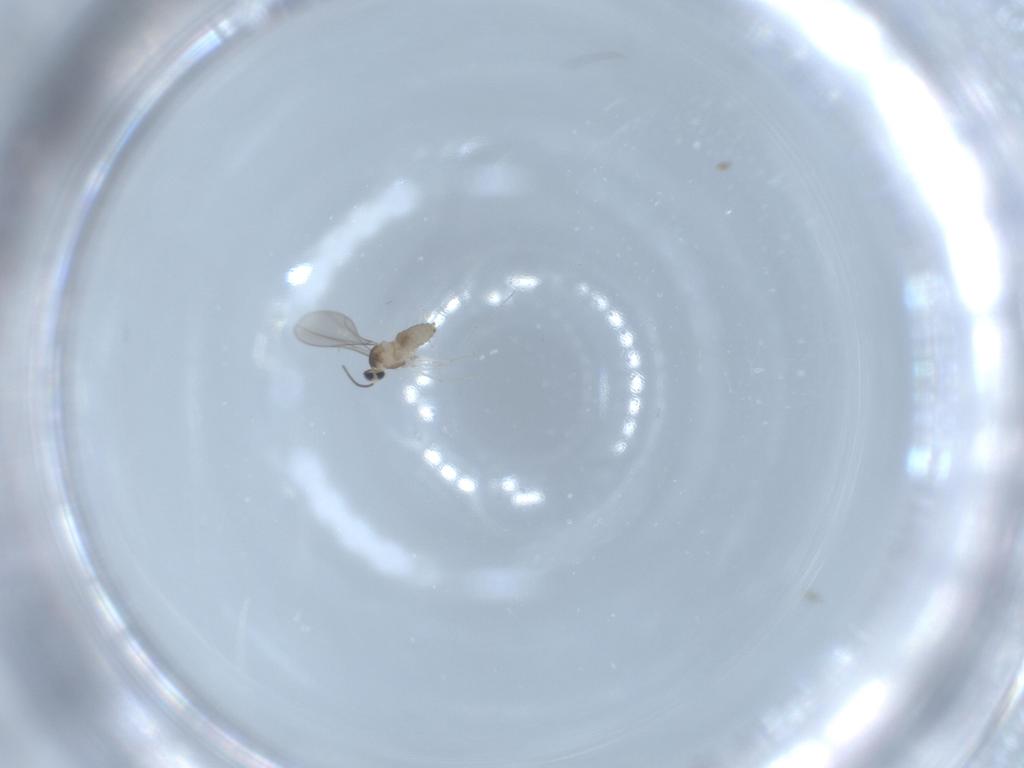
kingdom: Animalia
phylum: Arthropoda
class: Insecta
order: Diptera
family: Cecidomyiidae
